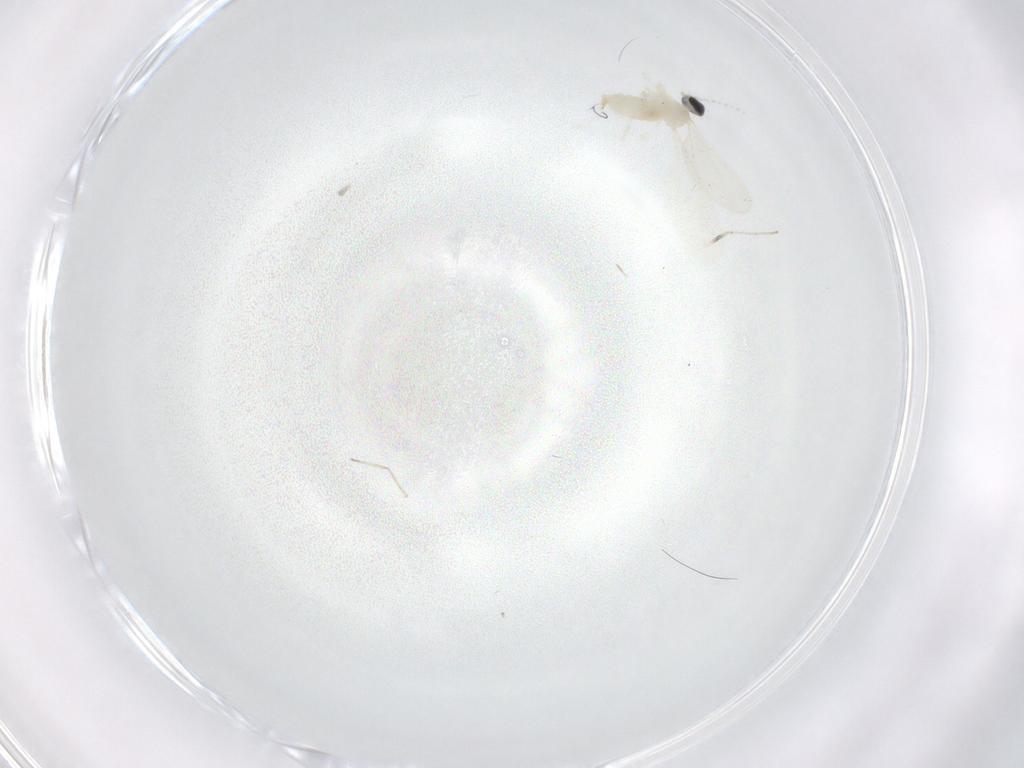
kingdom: Animalia
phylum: Arthropoda
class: Insecta
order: Diptera
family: Cecidomyiidae
